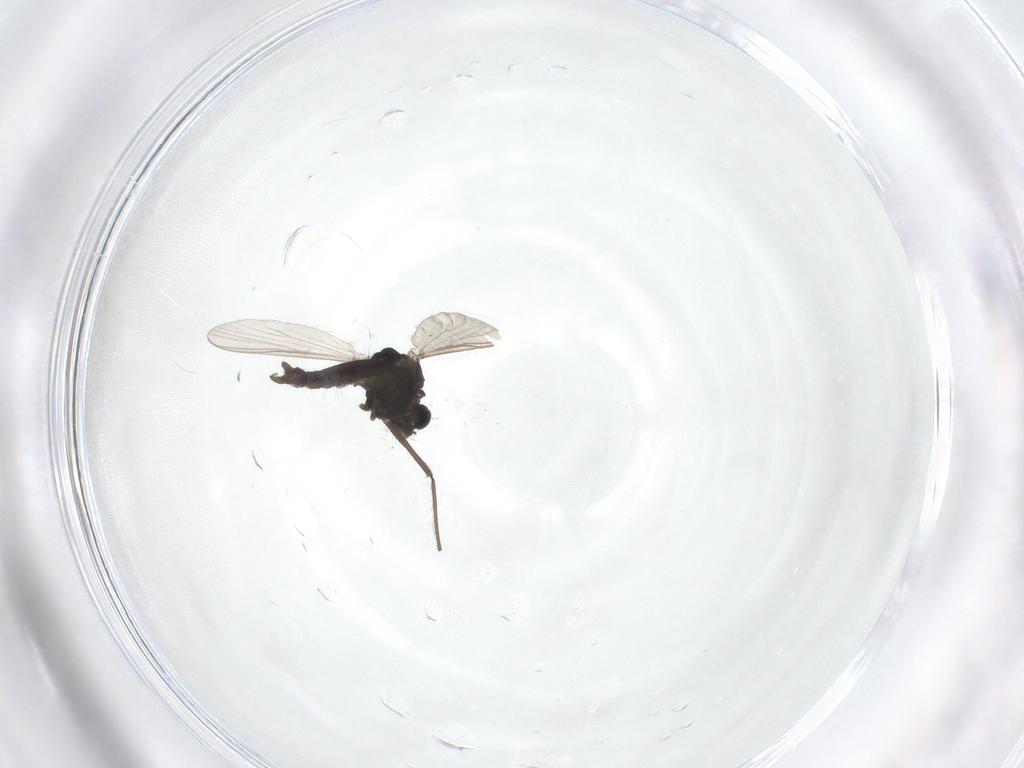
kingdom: Animalia
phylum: Arthropoda
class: Insecta
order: Diptera
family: Chironomidae
